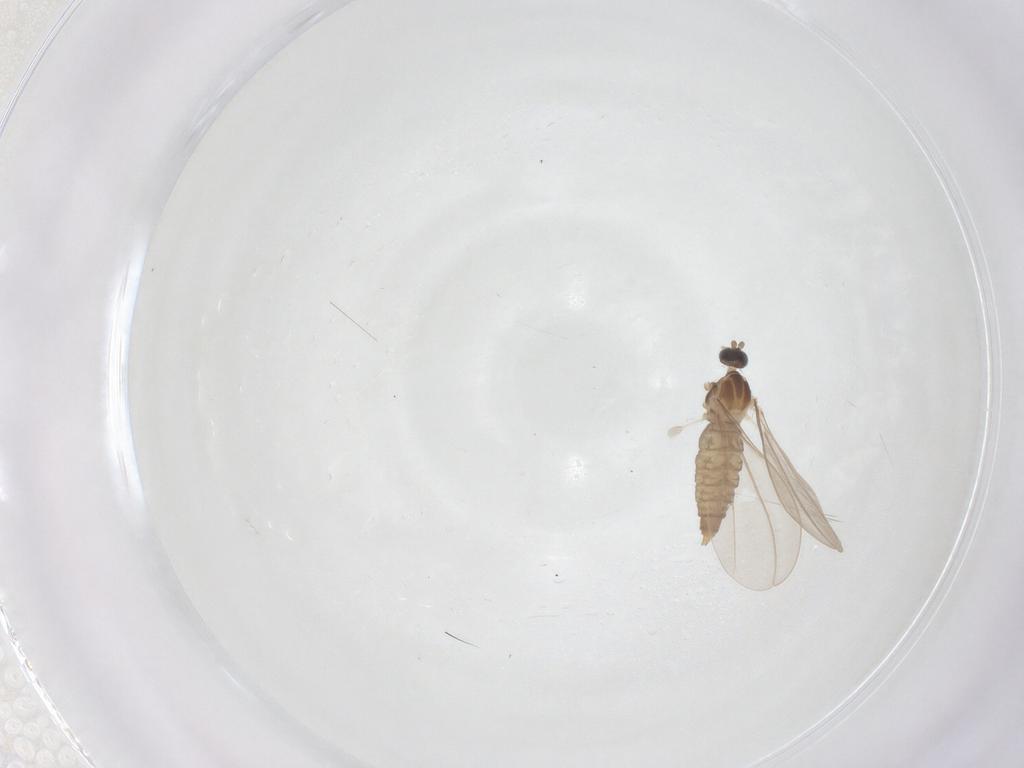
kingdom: Animalia
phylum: Arthropoda
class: Insecta
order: Diptera
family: Cecidomyiidae
